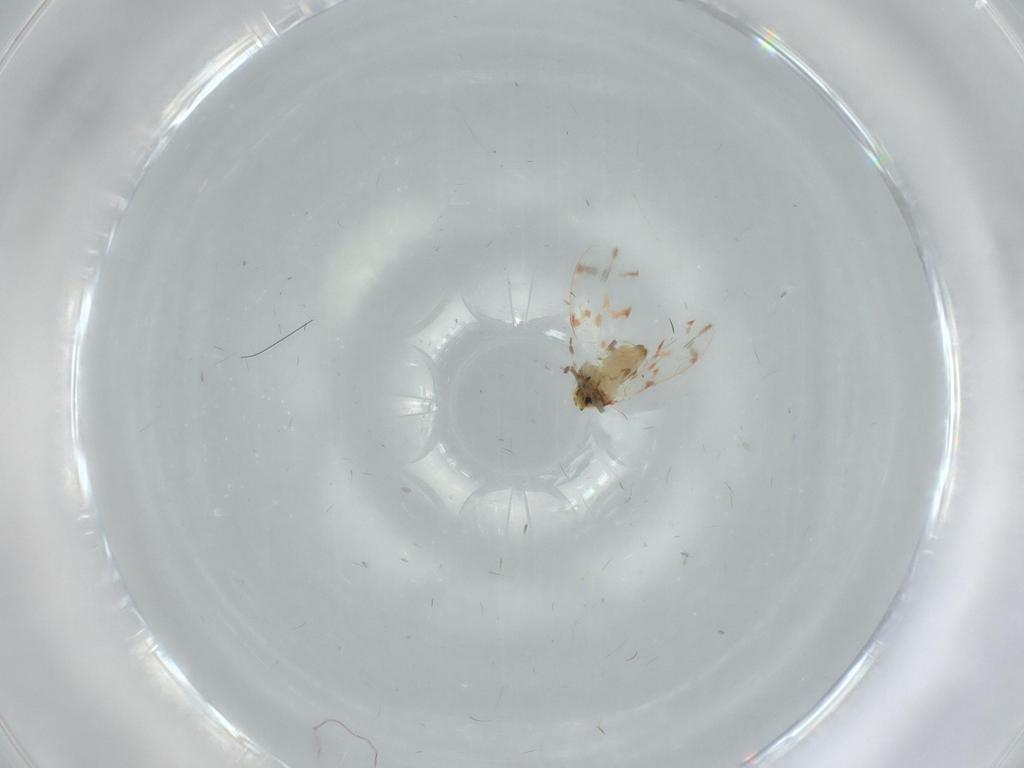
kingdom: Animalia
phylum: Arthropoda
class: Insecta
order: Hemiptera
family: Aleyrodidae
